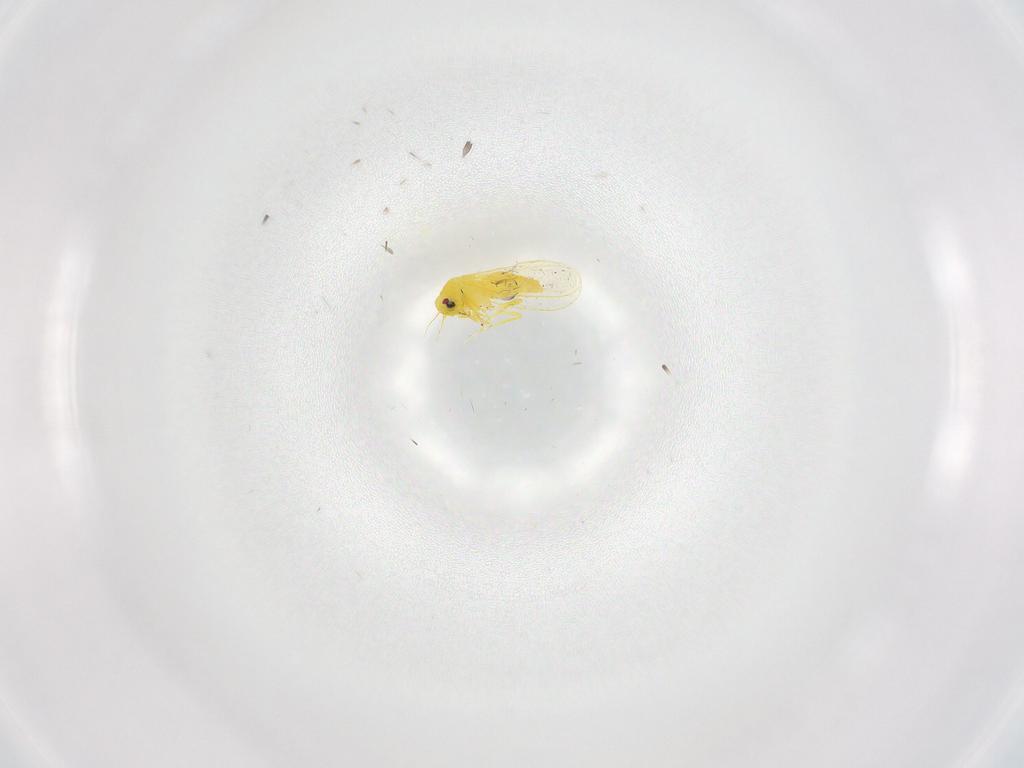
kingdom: Animalia
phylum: Arthropoda
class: Insecta
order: Hemiptera
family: Aleyrodidae
